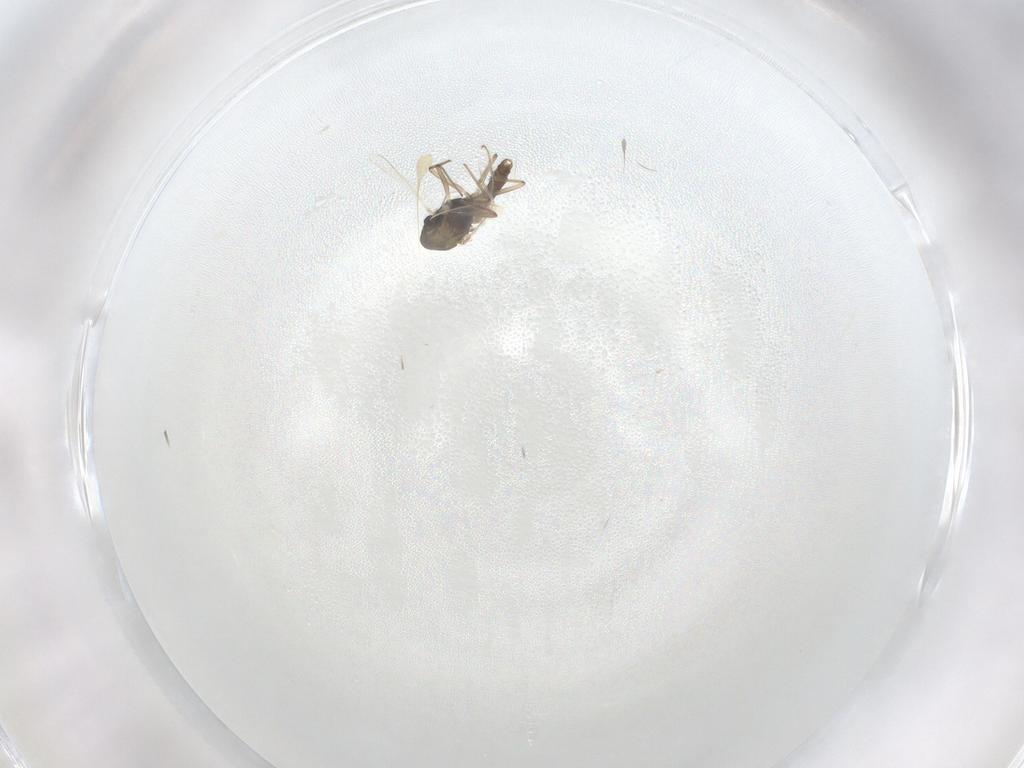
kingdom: Animalia
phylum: Arthropoda
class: Insecta
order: Diptera
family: Chironomidae
